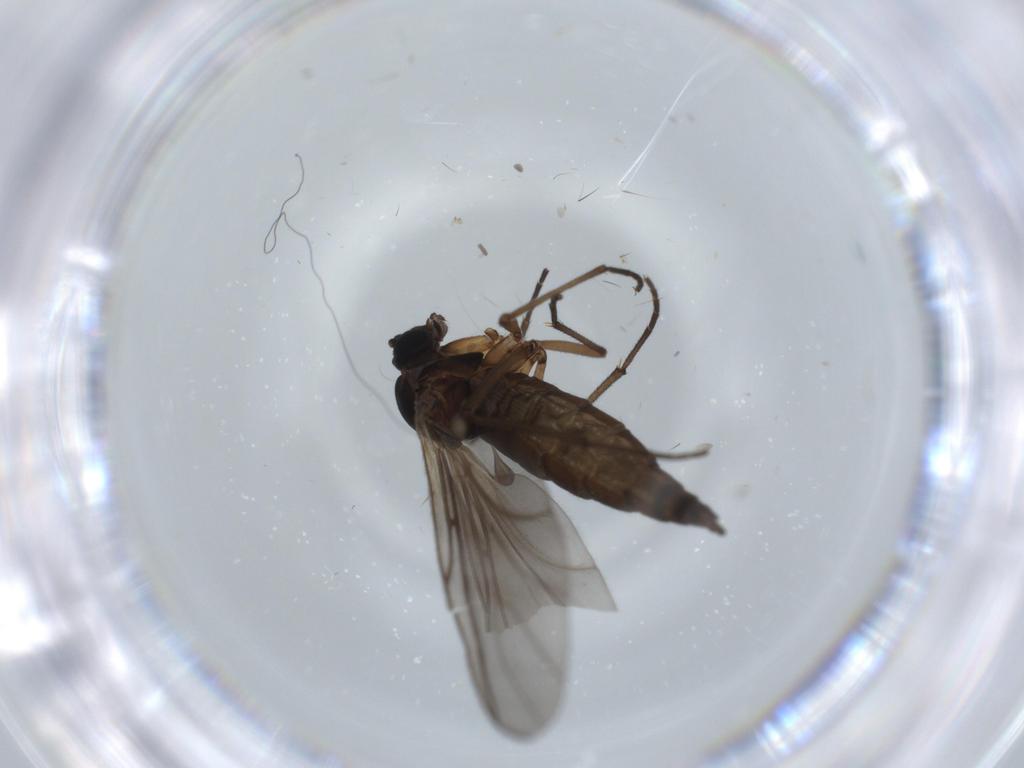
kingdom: Animalia
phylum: Arthropoda
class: Insecta
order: Diptera
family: Sciaridae
